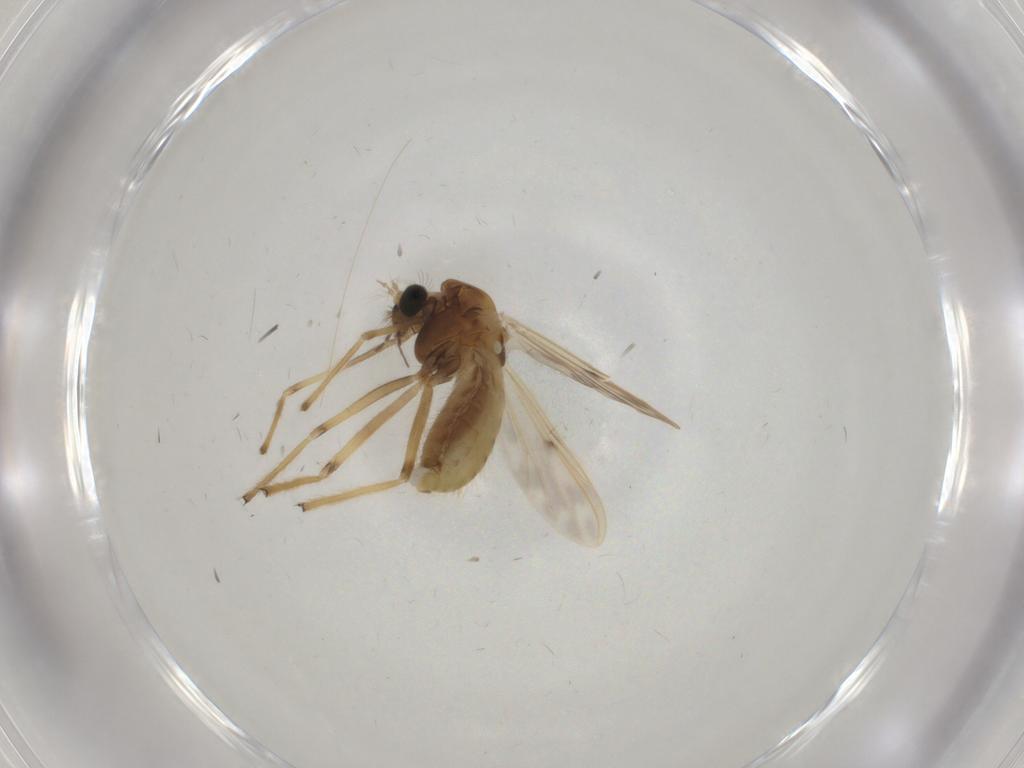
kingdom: Animalia
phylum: Arthropoda
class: Insecta
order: Diptera
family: Chironomidae
